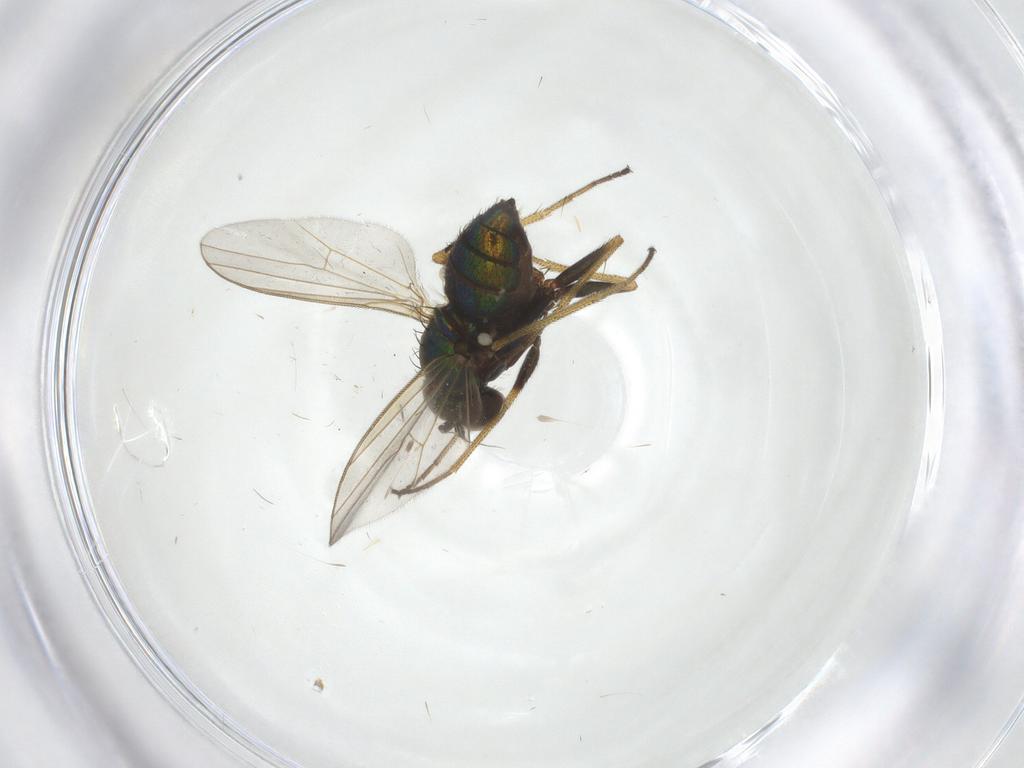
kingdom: Animalia
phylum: Arthropoda
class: Insecta
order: Diptera
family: Dolichopodidae
